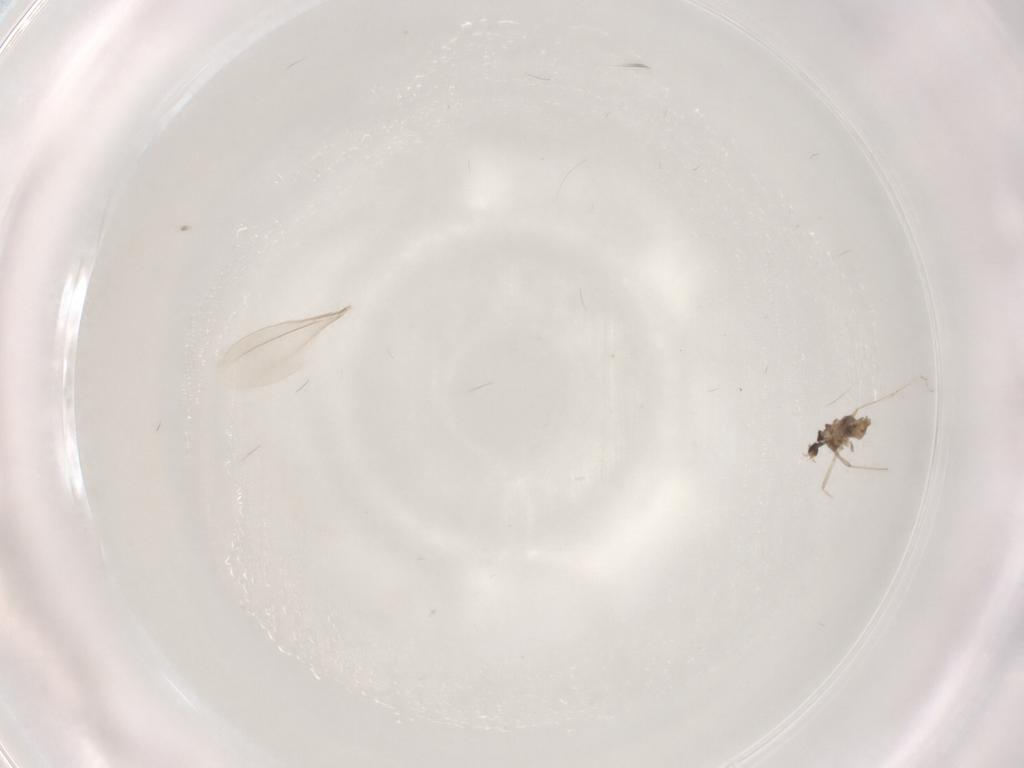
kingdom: Animalia
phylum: Arthropoda
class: Insecta
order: Diptera
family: Cecidomyiidae
